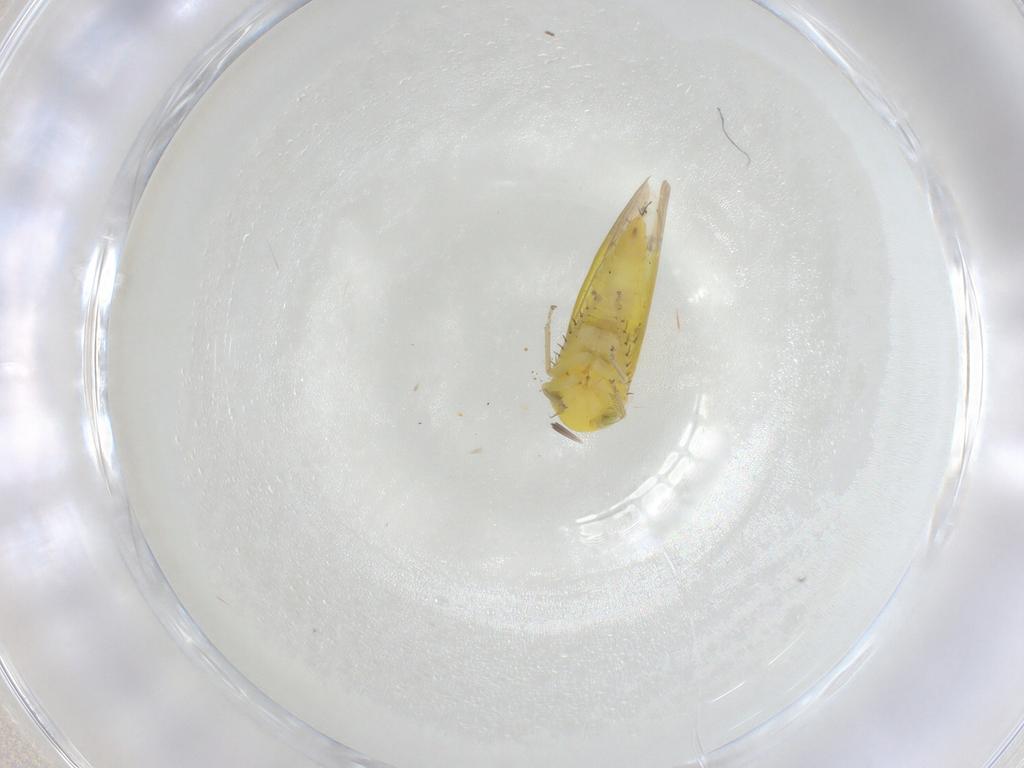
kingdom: Animalia
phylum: Arthropoda
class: Insecta
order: Hemiptera
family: Cicadellidae
